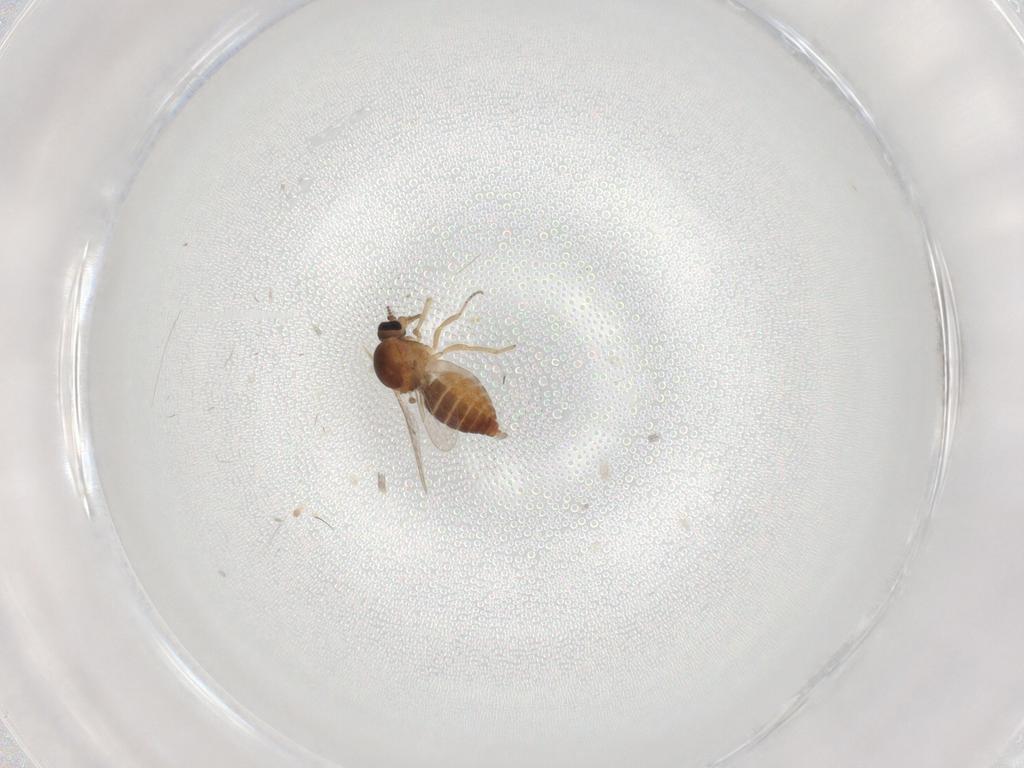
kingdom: Animalia
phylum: Arthropoda
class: Insecta
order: Diptera
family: Ceratopogonidae
